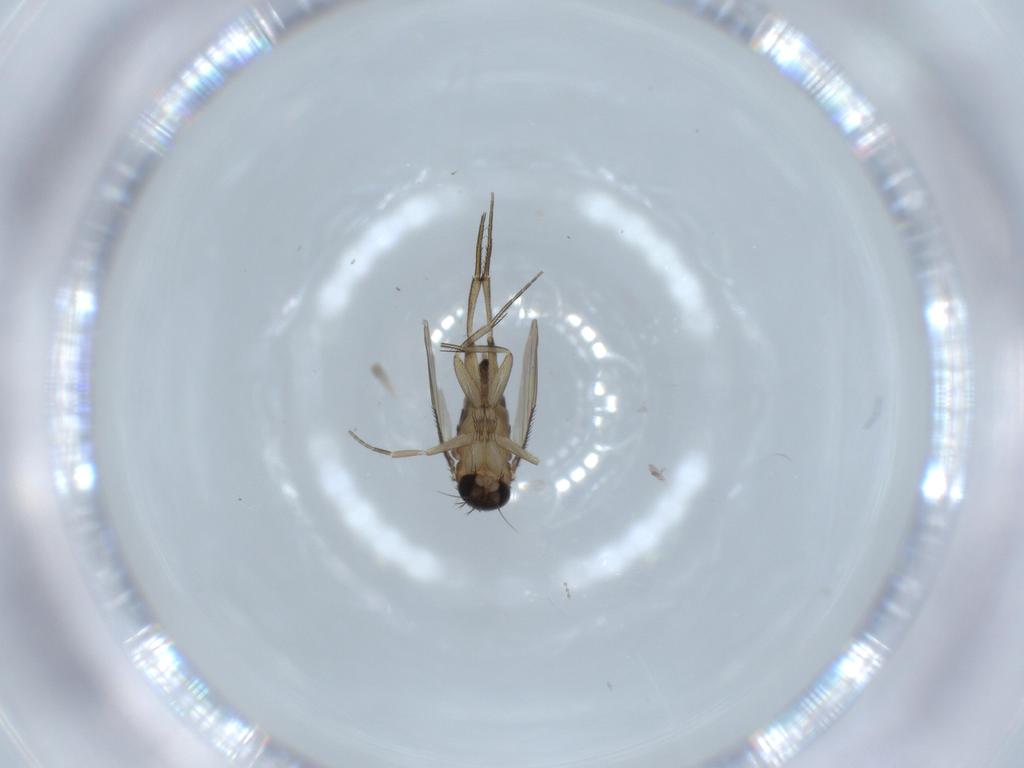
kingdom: Animalia
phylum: Arthropoda
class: Insecta
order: Diptera
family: Phoridae
